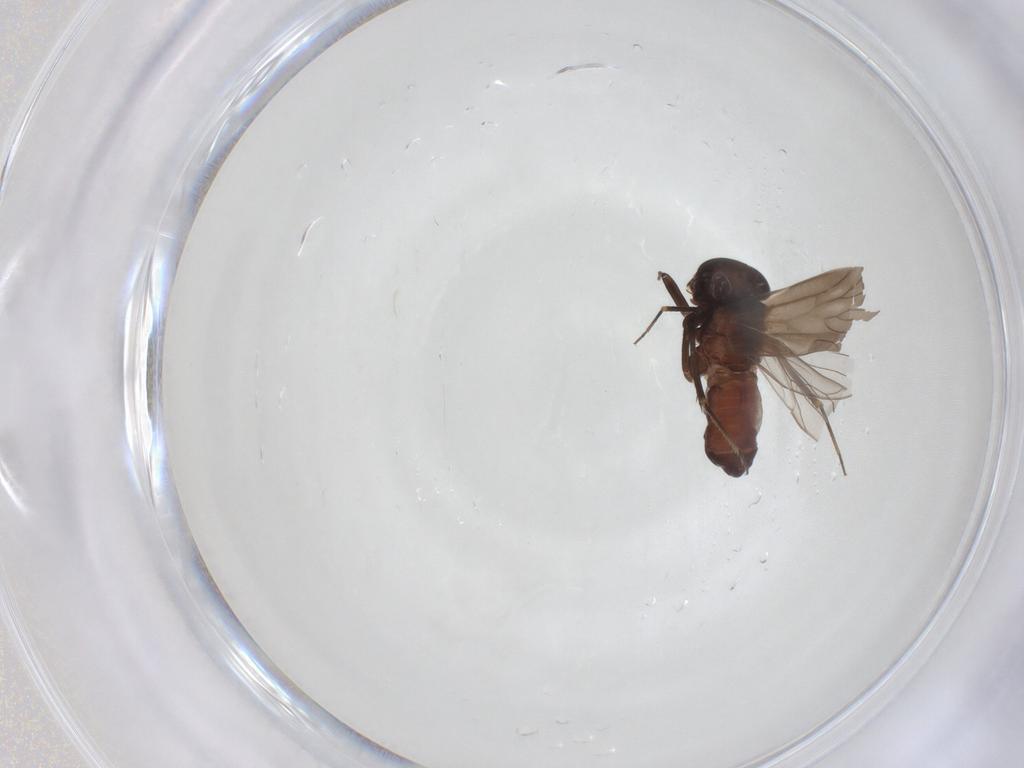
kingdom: Animalia
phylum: Arthropoda
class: Insecta
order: Psocodea
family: Amphientomidae
